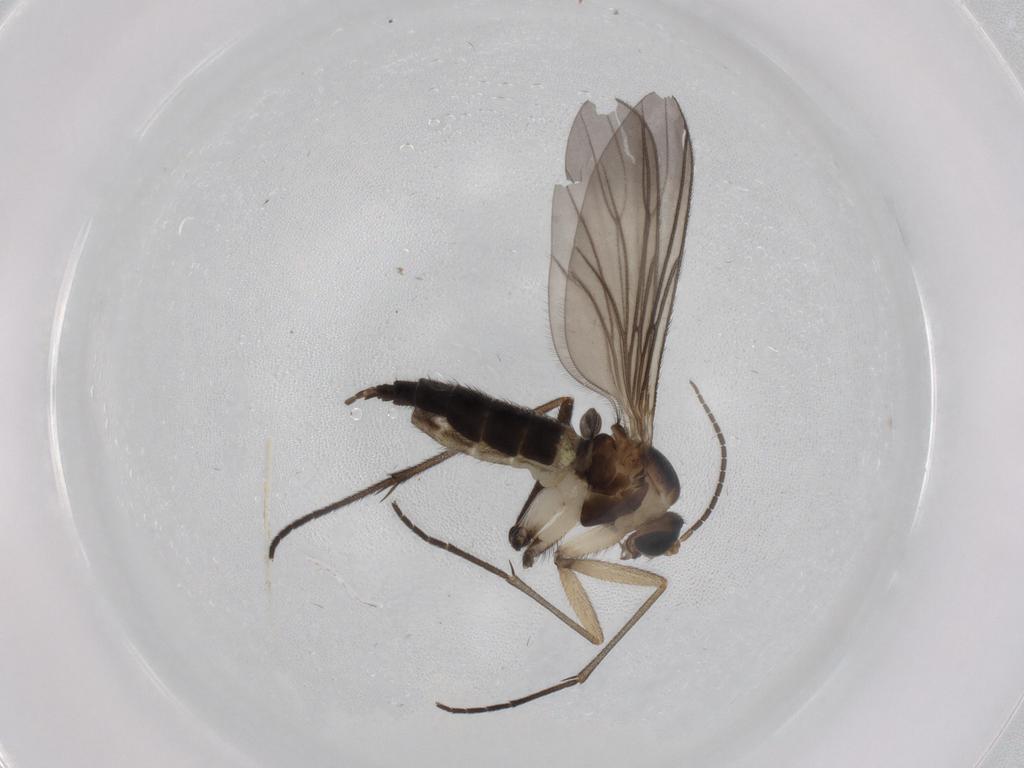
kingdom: Animalia
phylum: Arthropoda
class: Insecta
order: Diptera
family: Sciaridae
